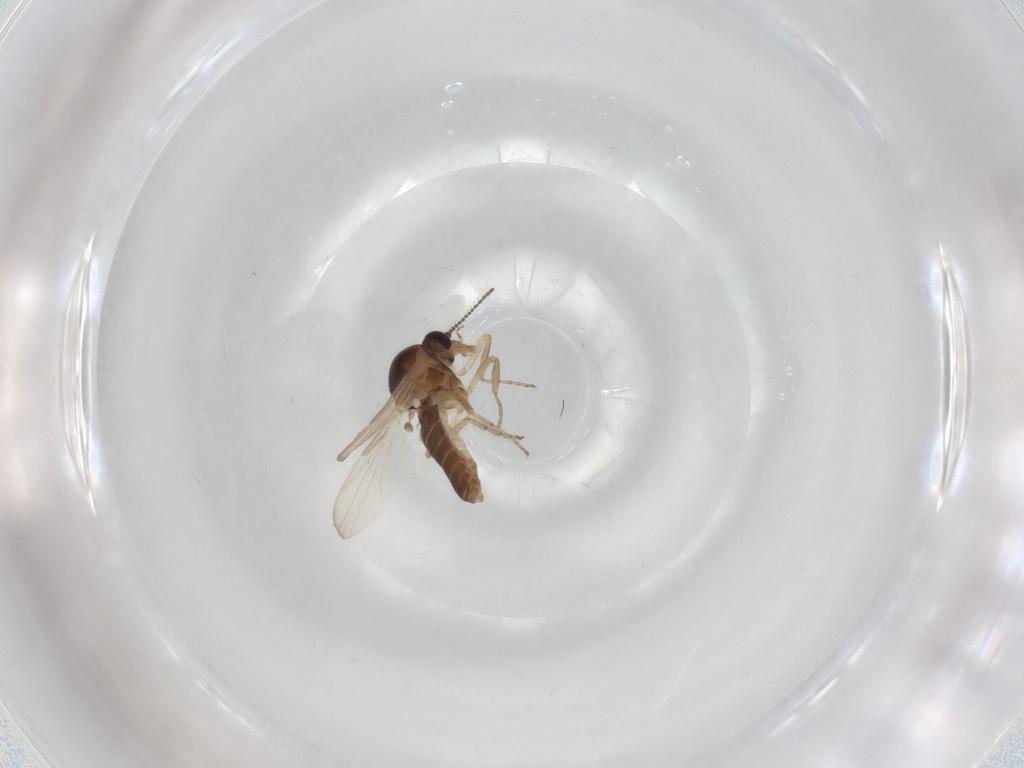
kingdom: Animalia
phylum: Arthropoda
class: Insecta
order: Diptera
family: Ceratopogonidae
